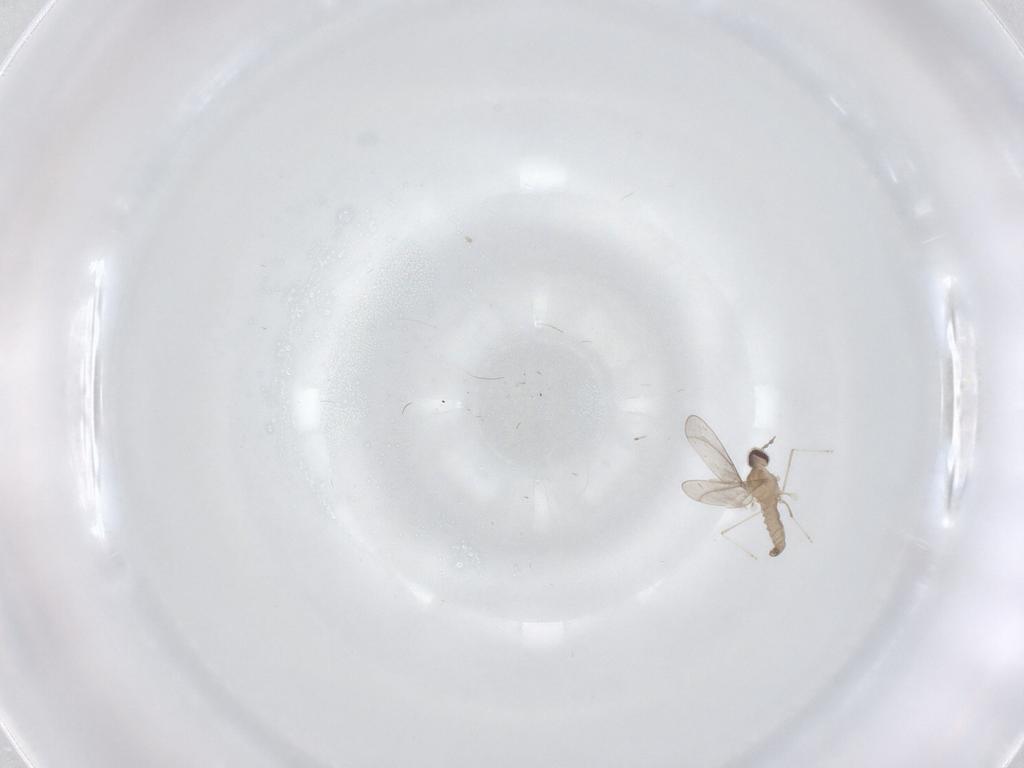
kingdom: Animalia
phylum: Arthropoda
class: Insecta
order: Diptera
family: Cecidomyiidae
